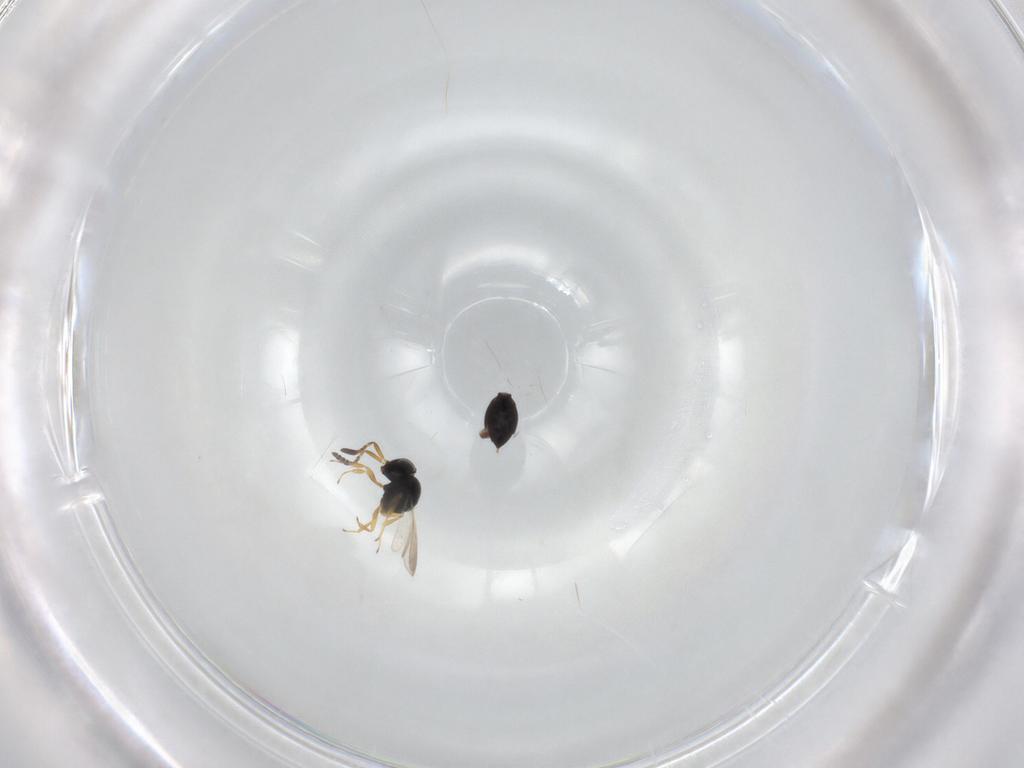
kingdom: Animalia
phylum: Arthropoda
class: Insecta
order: Hymenoptera
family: Scelionidae
